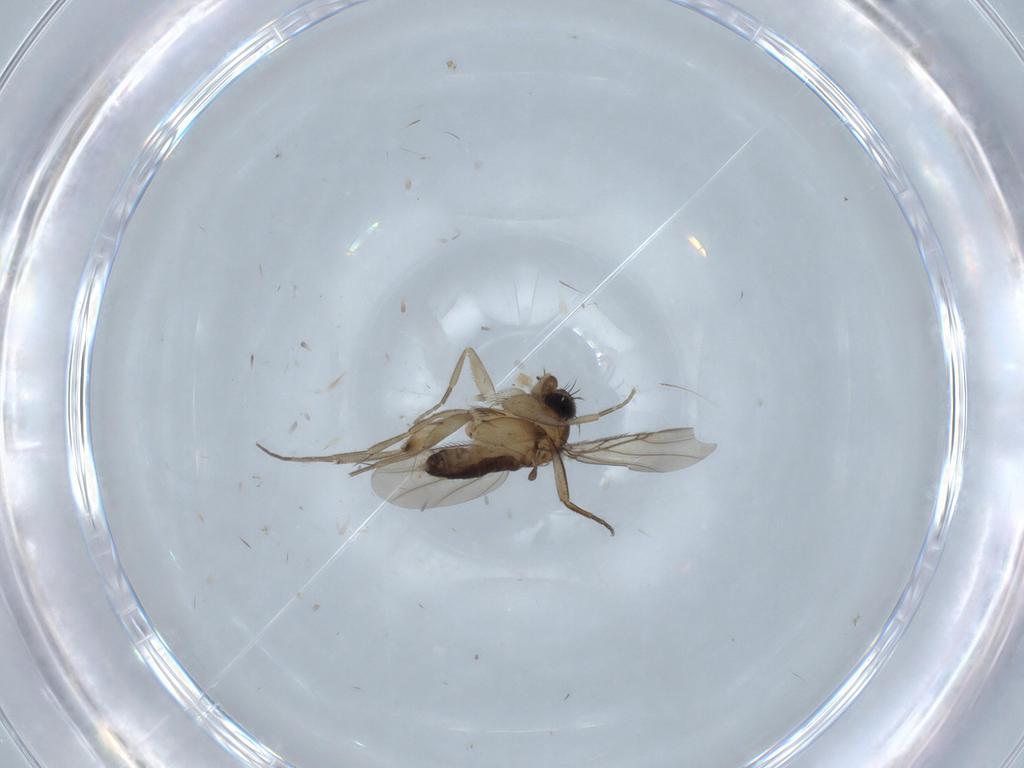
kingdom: Animalia
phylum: Arthropoda
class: Insecta
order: Diptera
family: Phoridae
